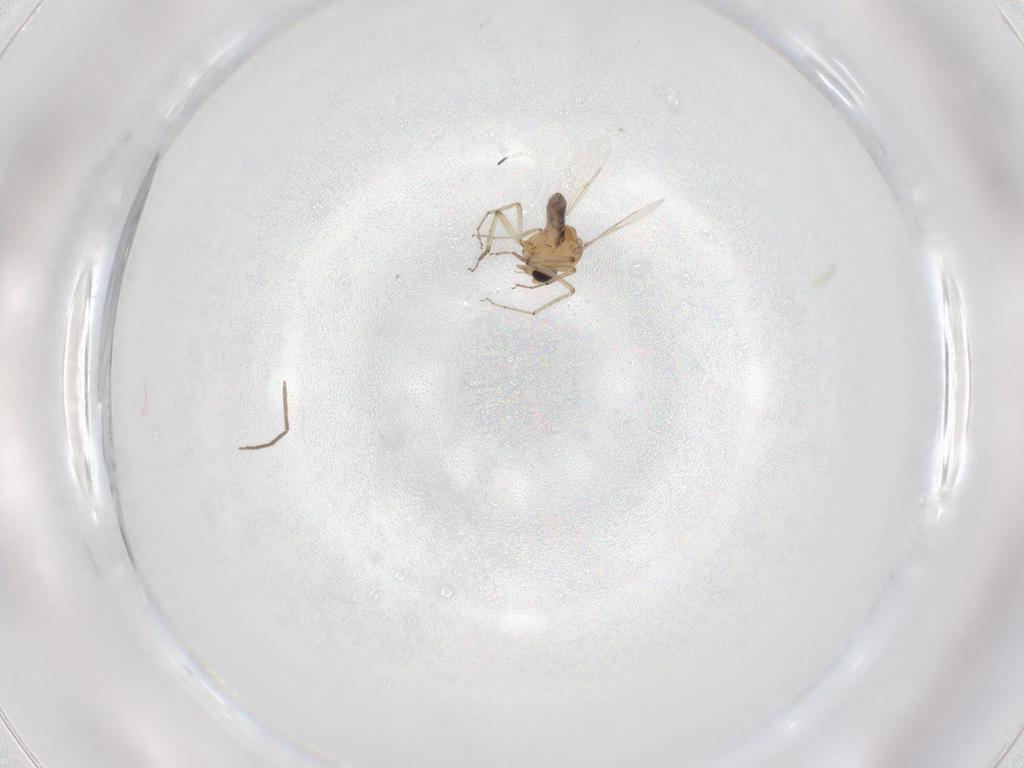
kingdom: Animalia
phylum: Arthropoda
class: Insecta
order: Diptera
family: Ceratopogonidae
